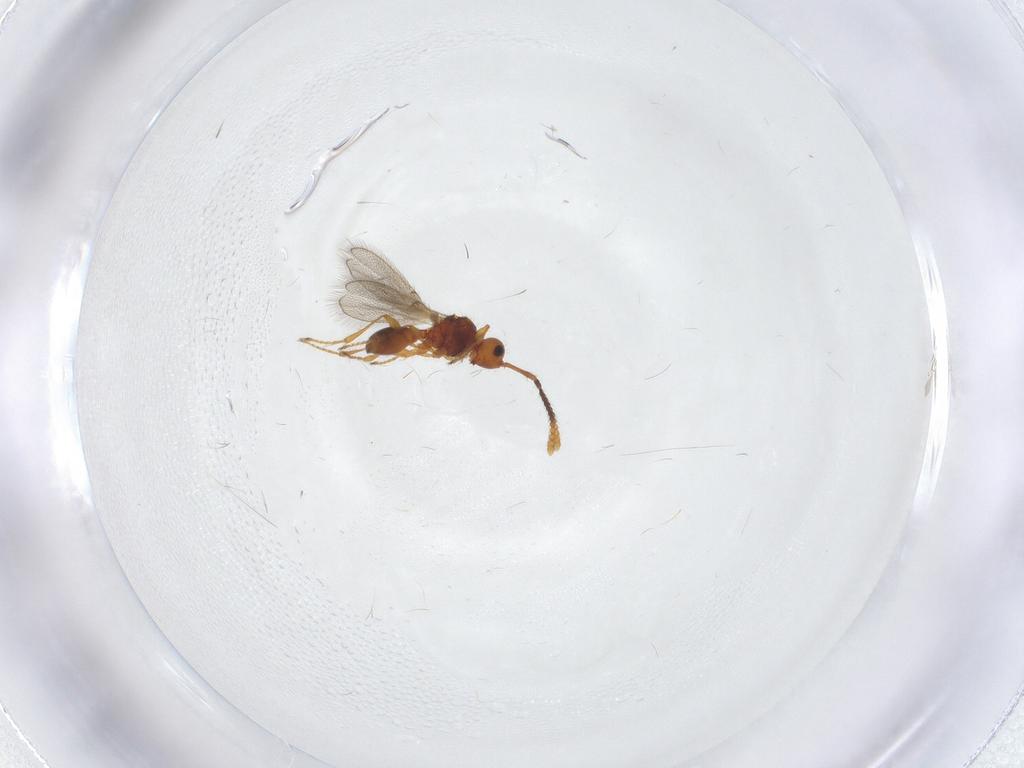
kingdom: Animalia
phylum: Arthropoda
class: Insecta
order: Hymenoptera
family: Diapriidae
